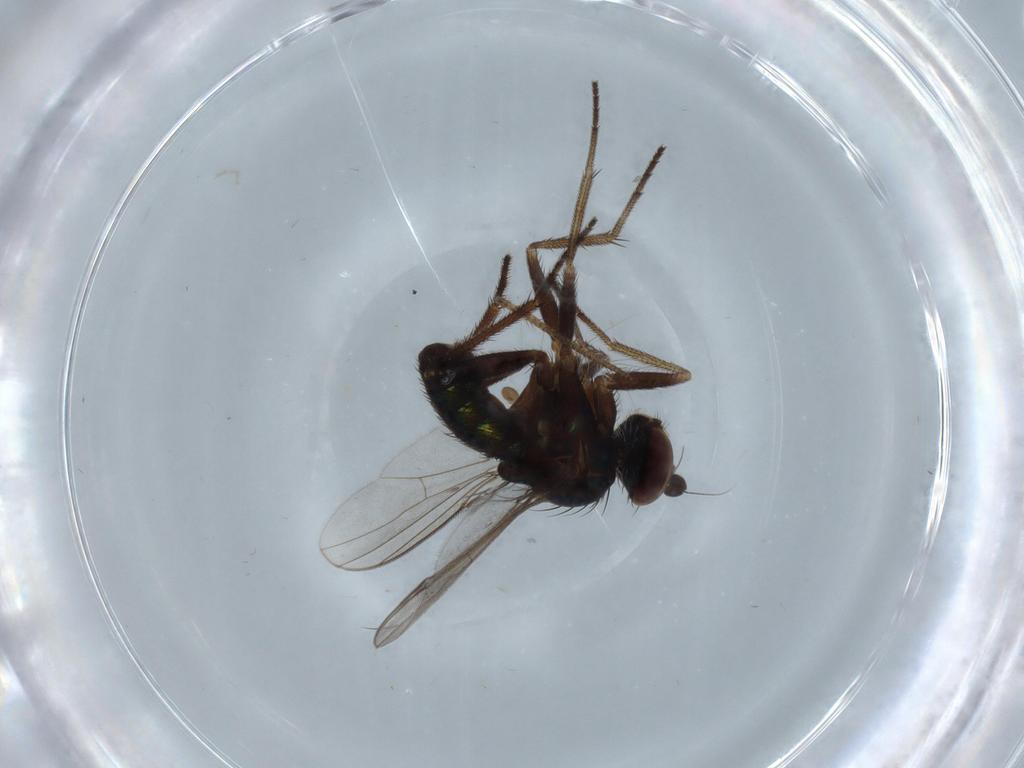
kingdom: Animalia
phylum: Arthropoda
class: Insecta
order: Diptera
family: Dolichopodidae
